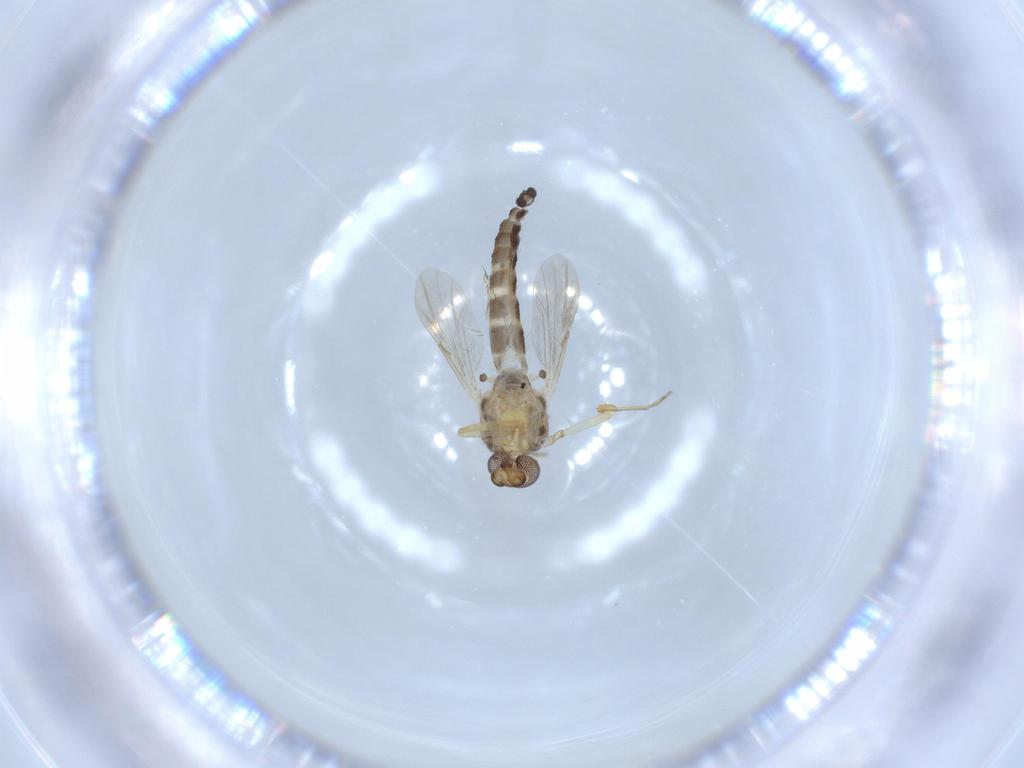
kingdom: Animalia
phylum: Arthropoda
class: Insecta
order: Diptera
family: Ceratopogonidae
